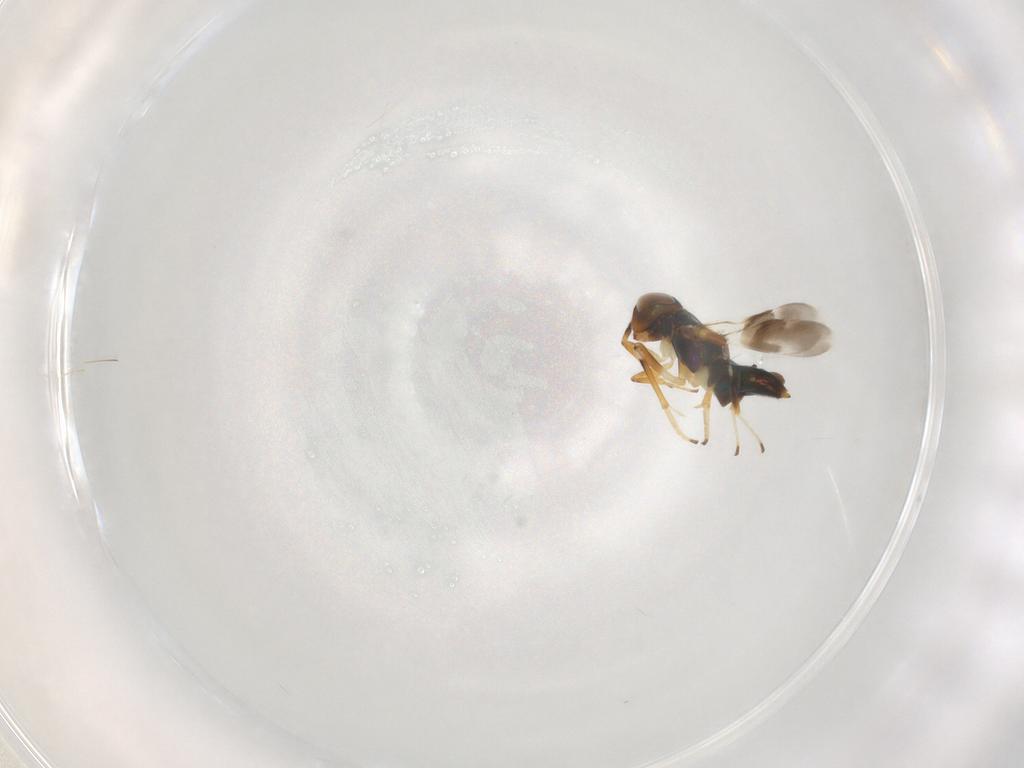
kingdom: Animalia
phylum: Arthropoda
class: Insecta
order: Hymenoptera
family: Encyrtidae
